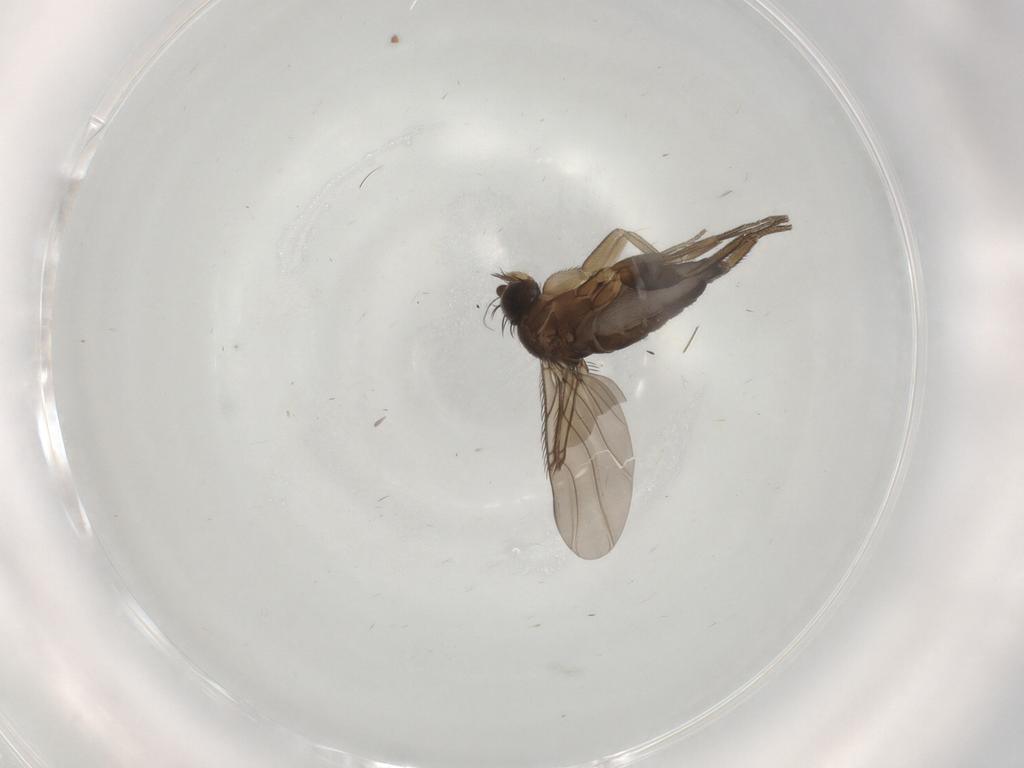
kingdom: Animalia
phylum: Arthropoda
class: Insecta
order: Diptera
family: Phoridae
